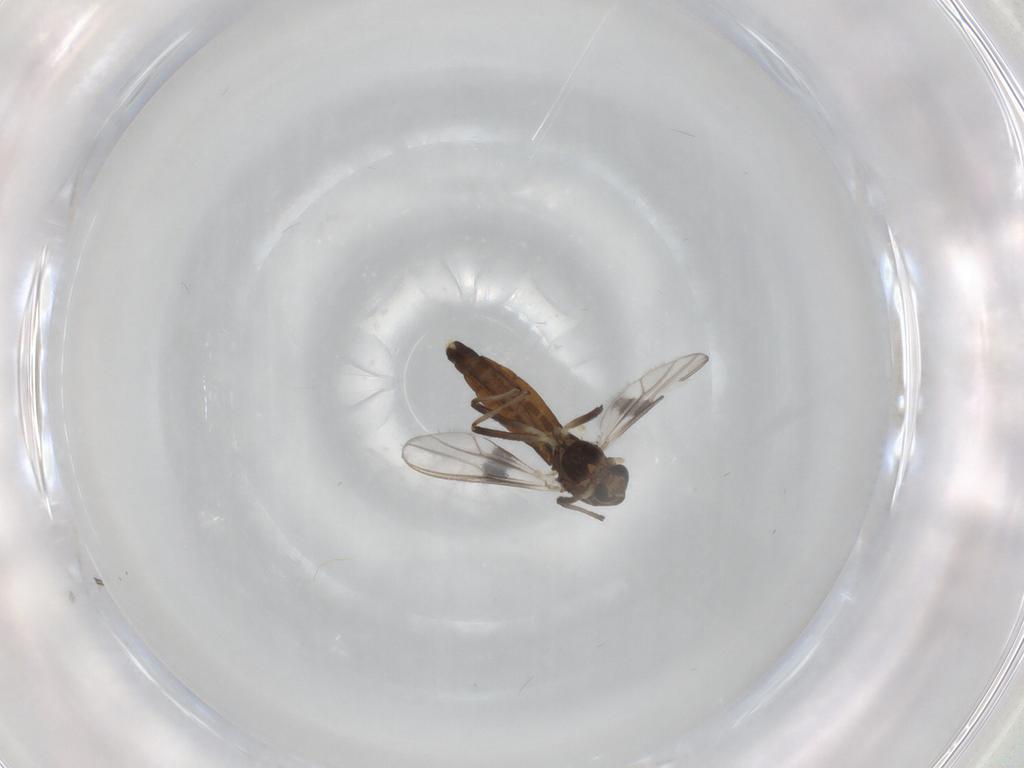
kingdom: Animalia
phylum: Arthropoda
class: Insecta
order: Diptera
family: Chironomidae
